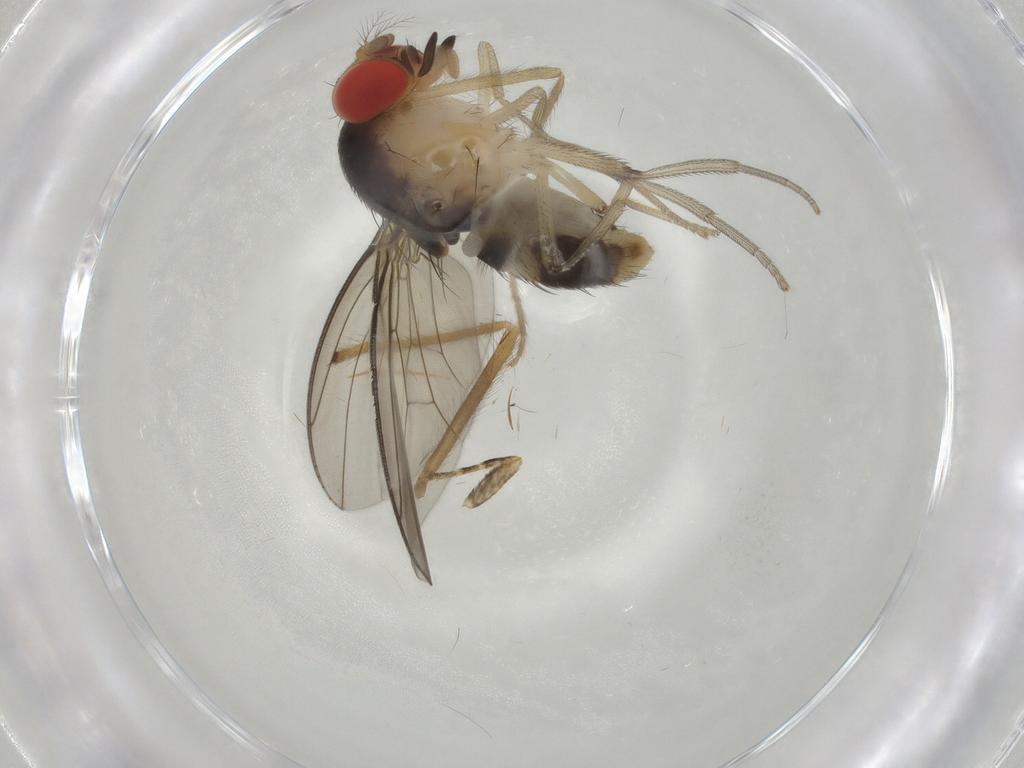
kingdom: Animalia
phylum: Arthropoda
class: Insecta
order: Diptera
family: Chironomidae
